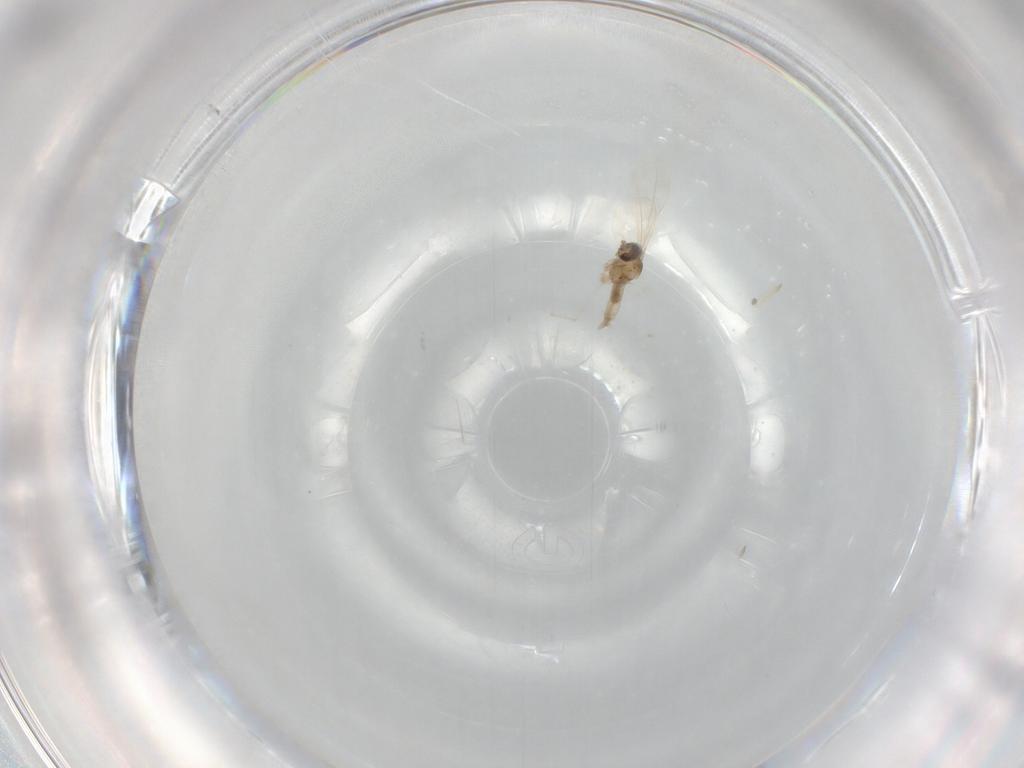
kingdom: Animalia
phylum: Arthropoda
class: Insecta
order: Diptera
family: Cecidomyiidae
